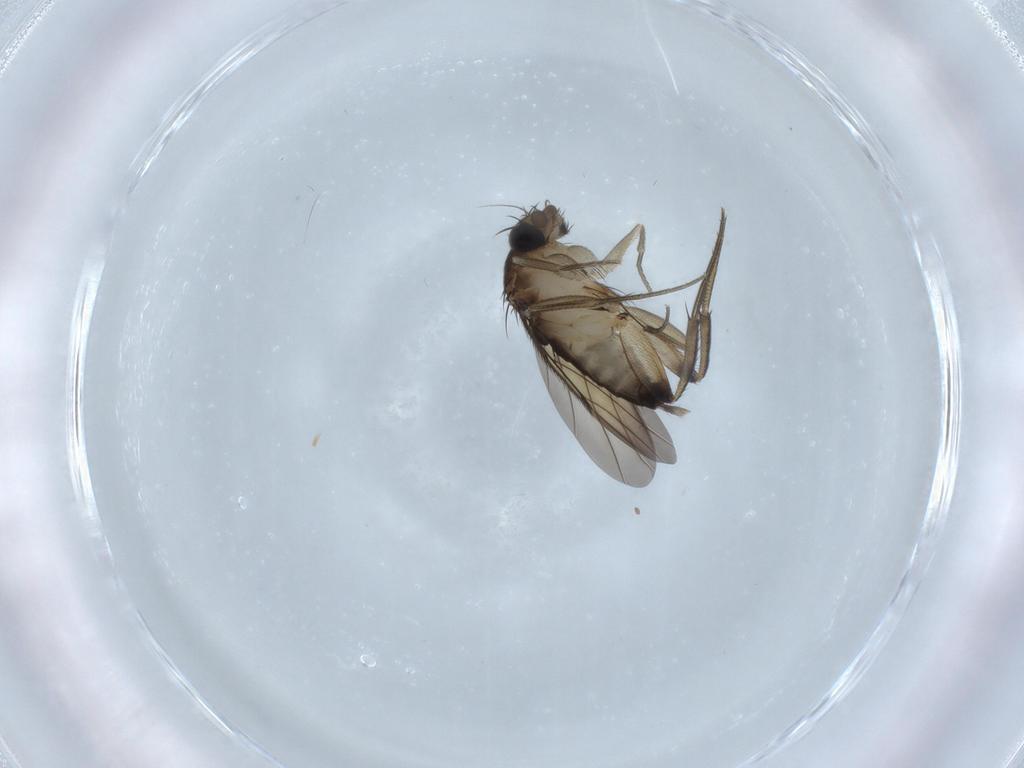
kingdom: Animalia
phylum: Arthropoda
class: Insecta
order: Diptera
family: Phoridae
